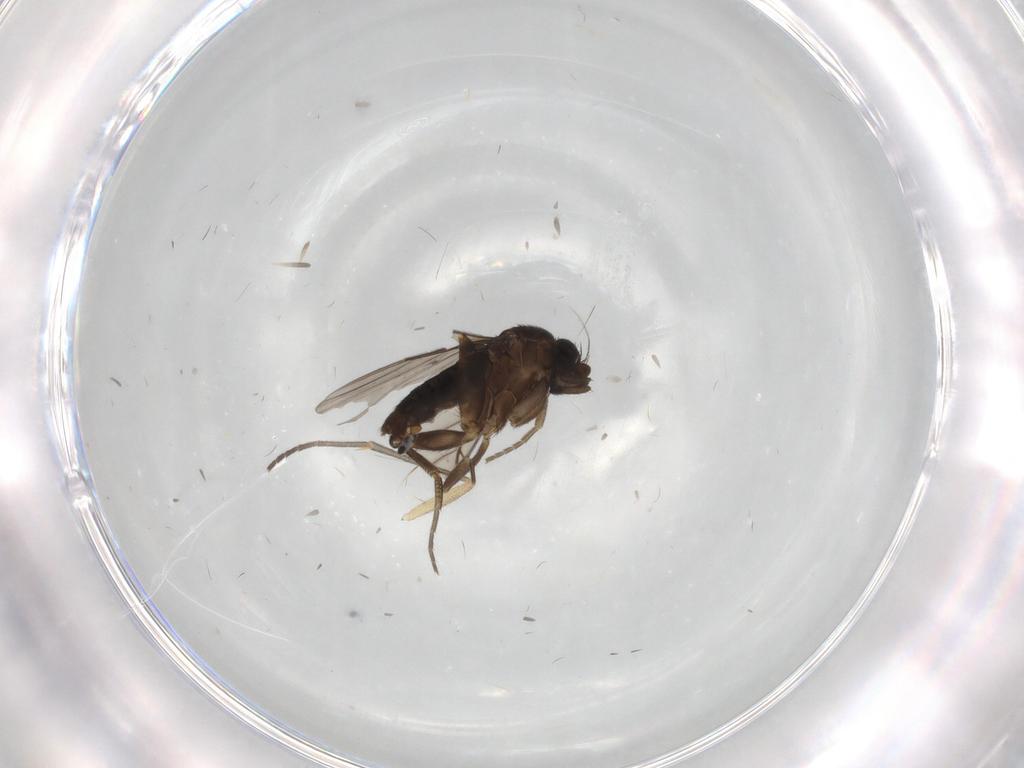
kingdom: Animalia
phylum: Arthropoda
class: Insecta
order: Diptera
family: Phoridae
